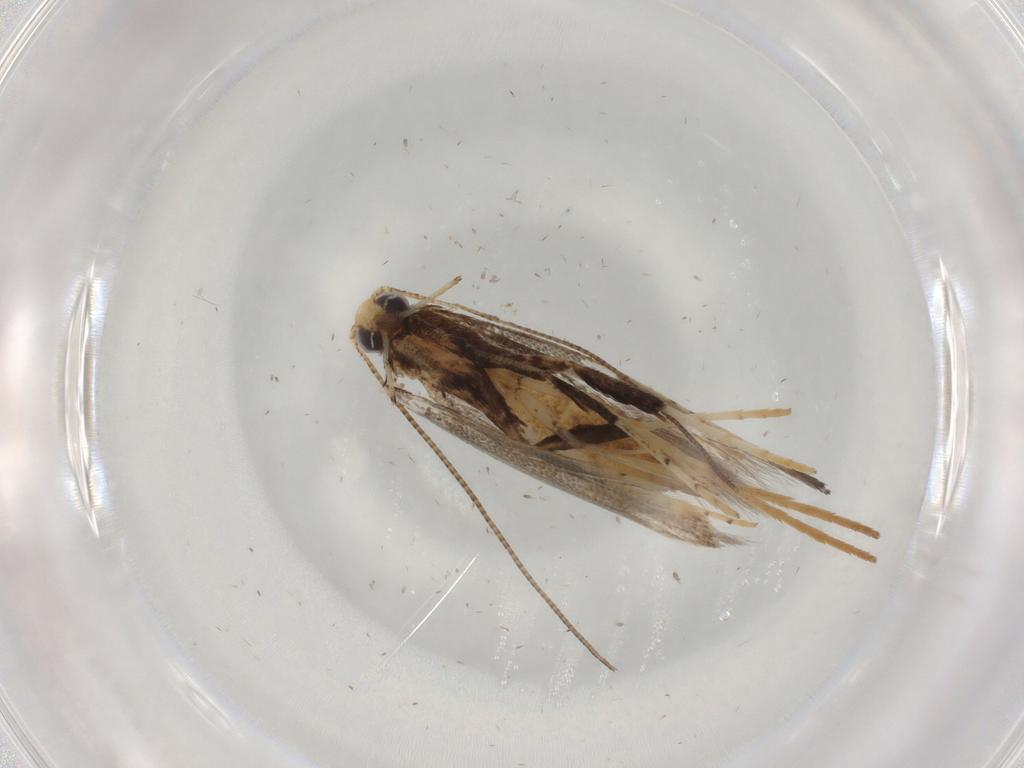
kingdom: Animalia
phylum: Arthropoda
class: Insecta
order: Lepidoptera
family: Gracillariidae
